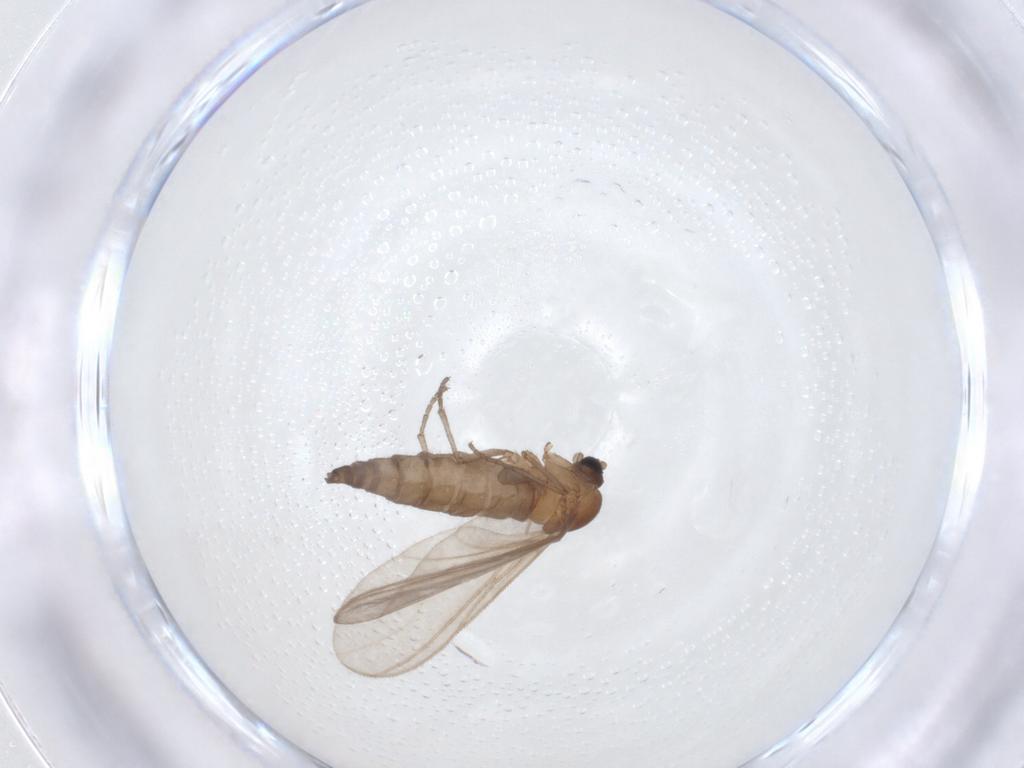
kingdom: Animalia
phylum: Arthropoda
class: Insecta
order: Diptera
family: Sciaridae
